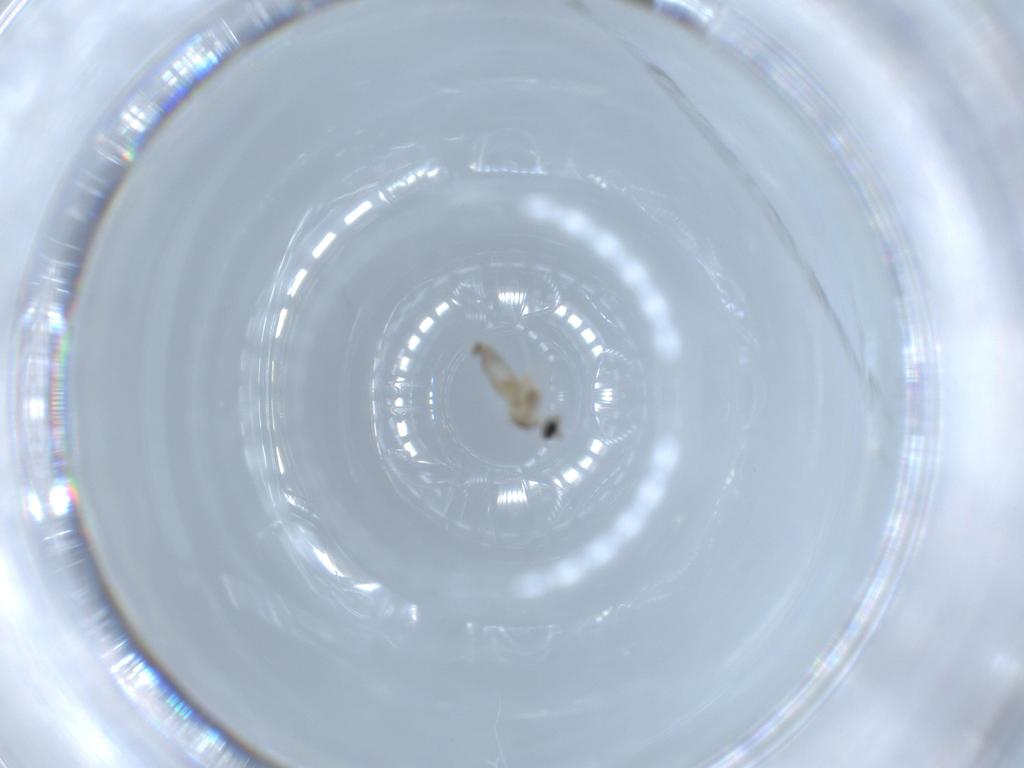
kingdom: Animalia
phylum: Arthropoda
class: Insecta
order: Diptera
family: Cecidomyiidae
